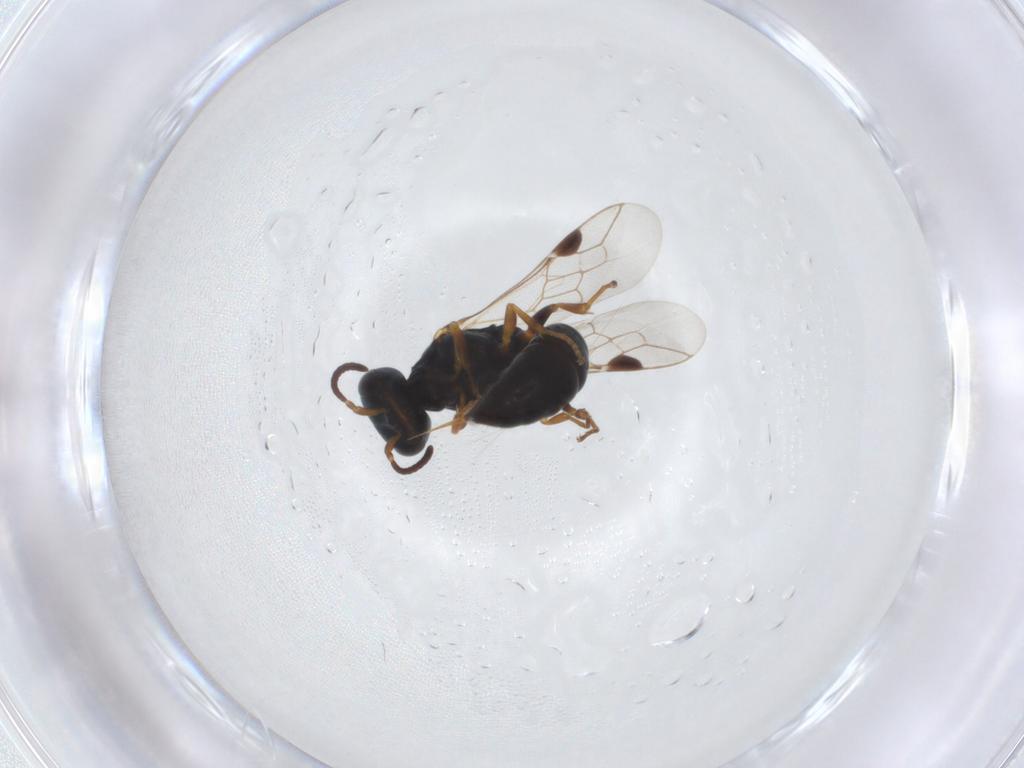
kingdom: Animalia
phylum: Arthropoda
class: Insecta
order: Hymenoptera
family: Crabronidae
